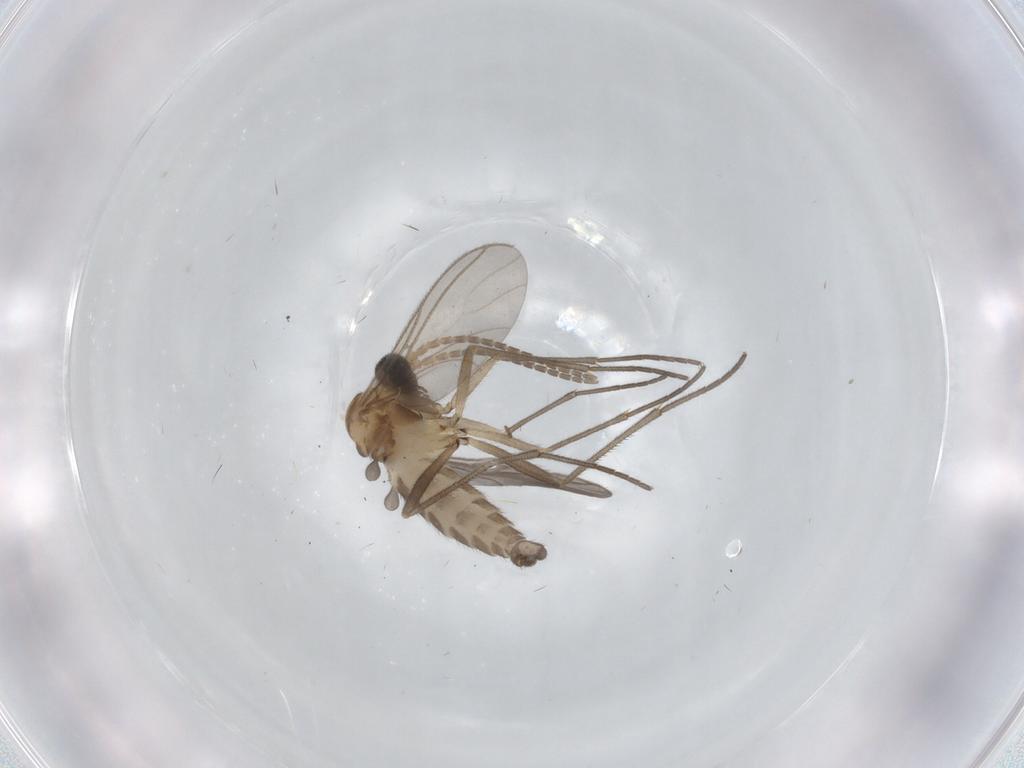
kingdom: Animalia
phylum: Arthropoda
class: Insecta
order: Diptera
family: Sciaridae
